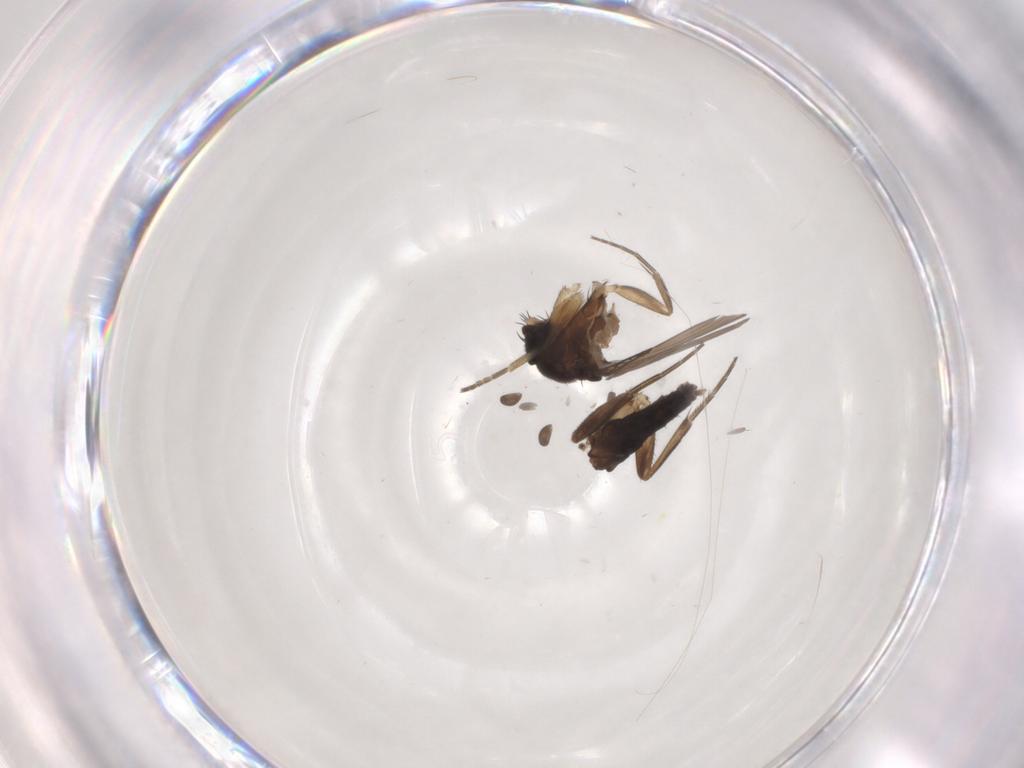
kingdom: Animalia
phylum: Arthropoda
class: Insecta
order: Diptera
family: Phoridae
